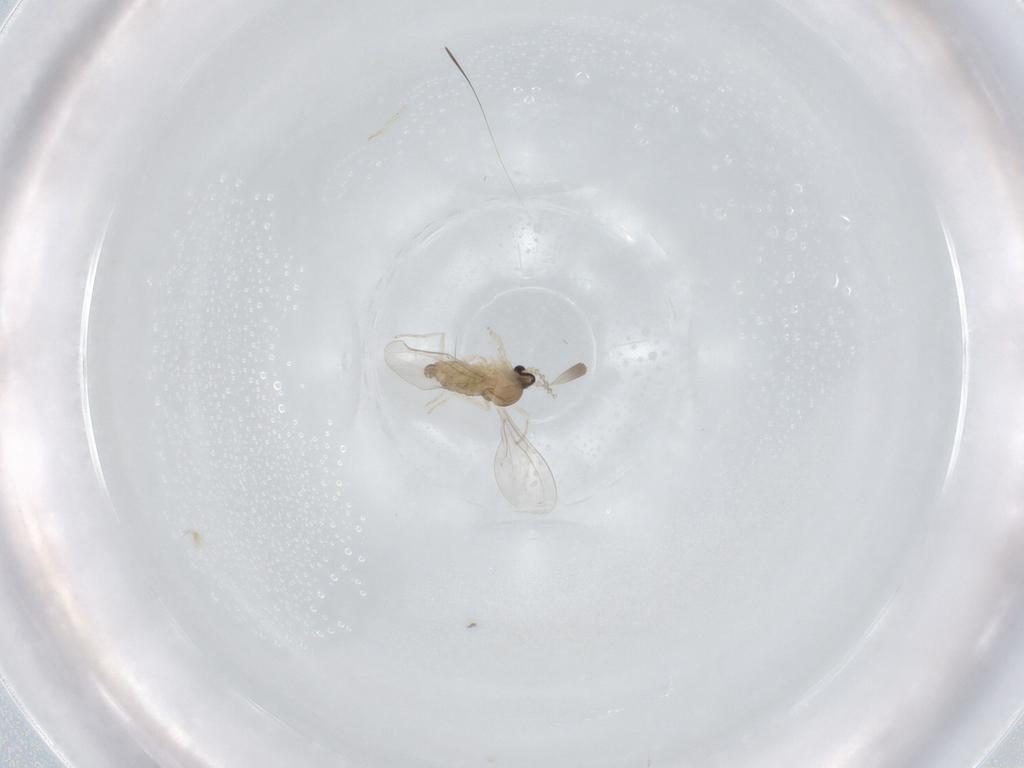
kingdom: Animalia
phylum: Arthropoda
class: Insecta
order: Diptera
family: Cecidomyiidae
